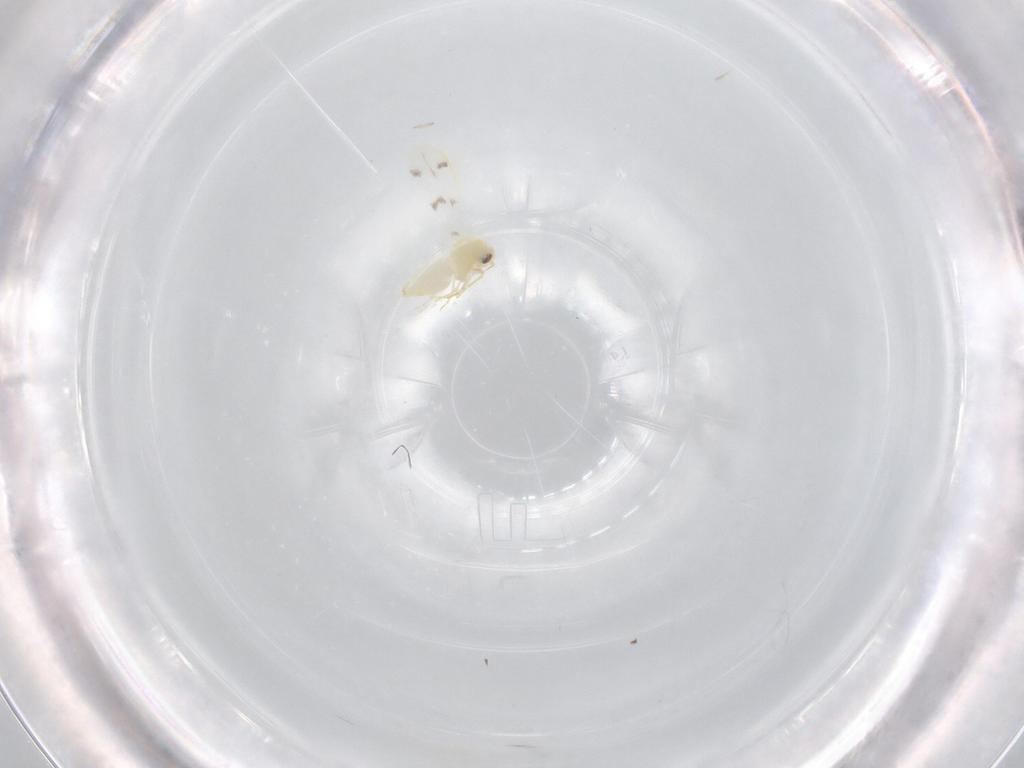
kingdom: Animalia
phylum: Arthropoda
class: Insecta
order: Hemiptera
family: Aleyrodidae
